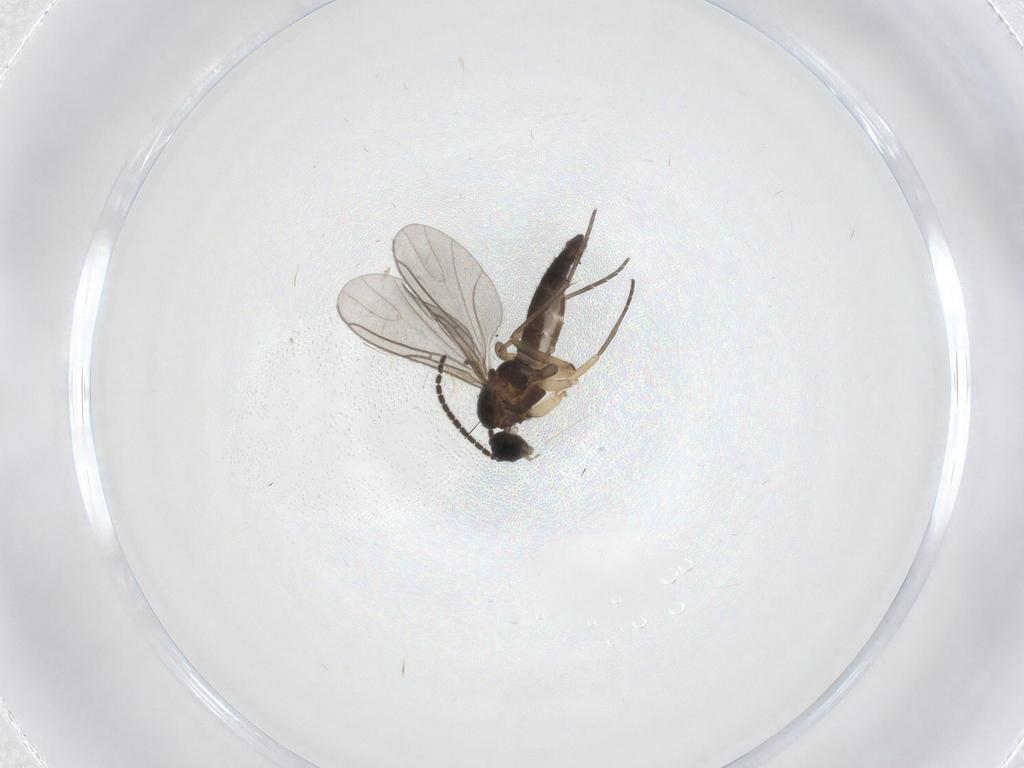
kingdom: Animalia
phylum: Arthropoda
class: Insecta
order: Diptera
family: Sciaridae
